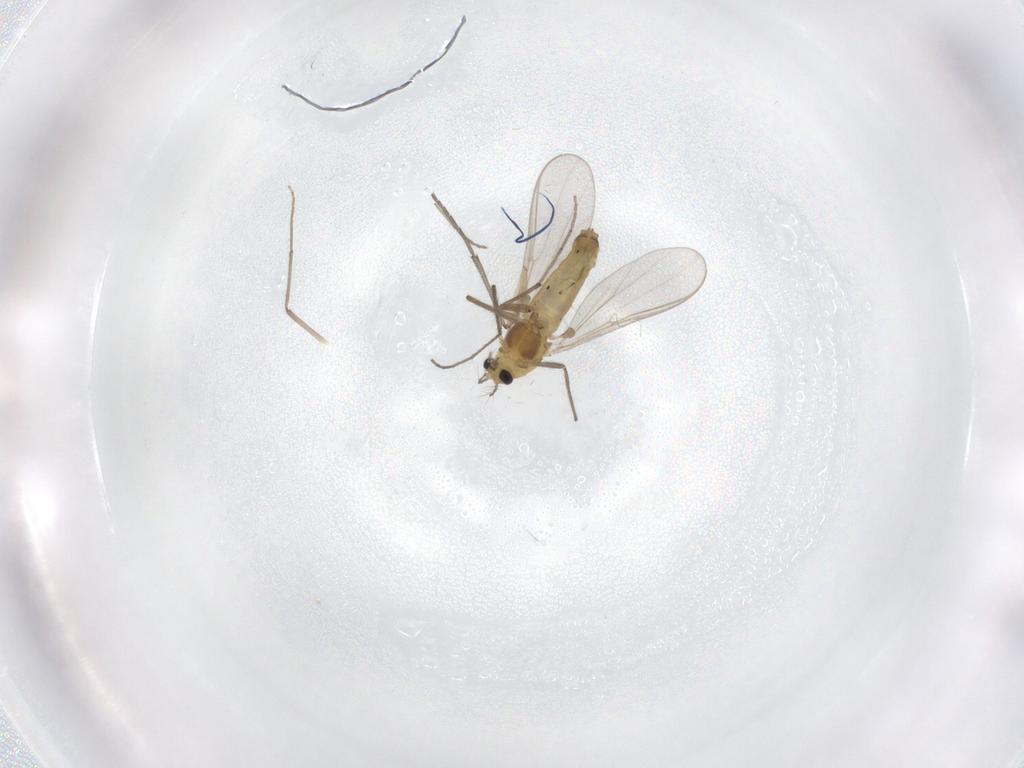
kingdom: Animalia
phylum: Arthropoda
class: Insecta
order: Diptera
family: Chironomidae
